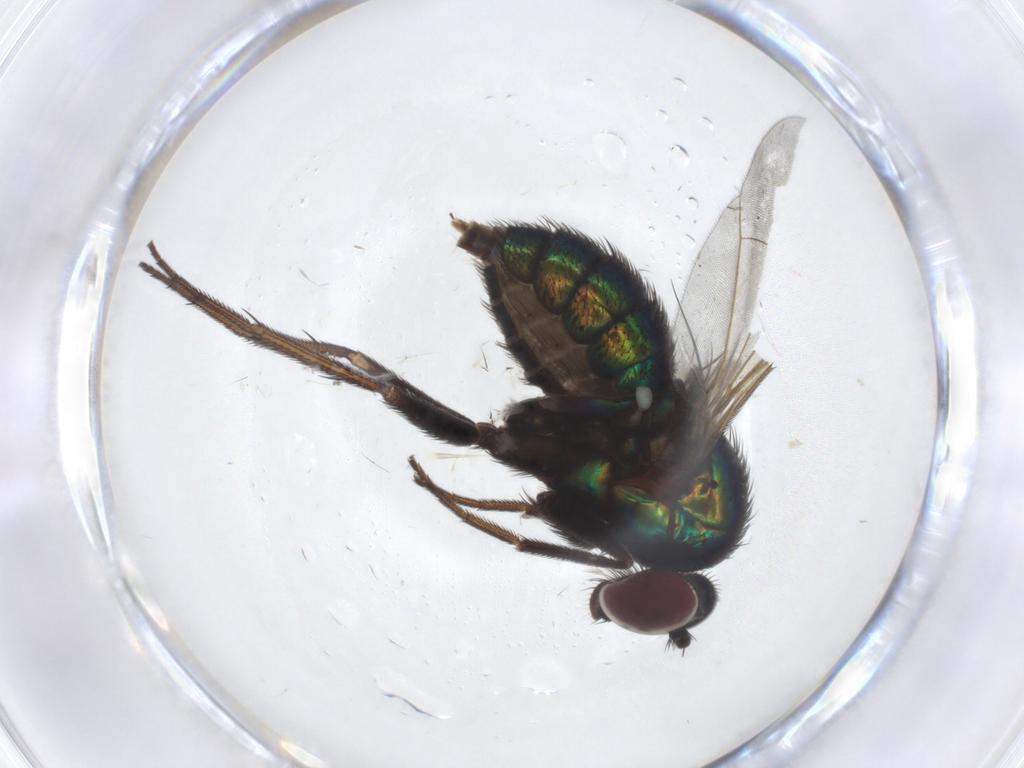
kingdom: Animalia
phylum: Arthropoda
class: Insecta
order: Diptera
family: Dolichopodidae
